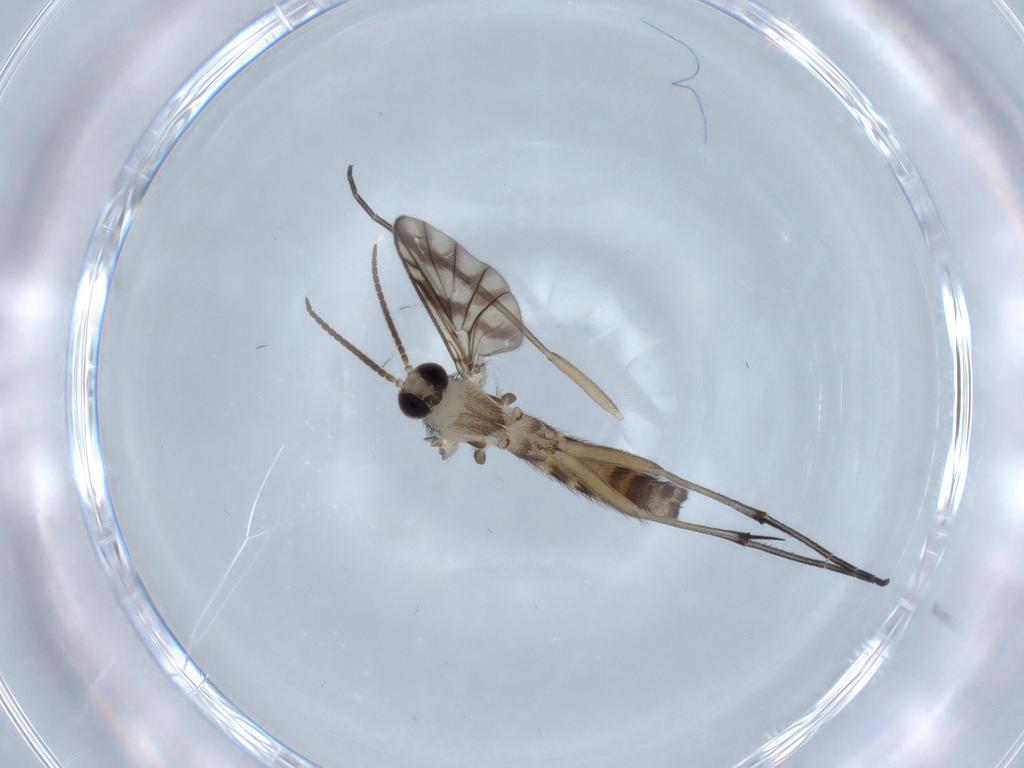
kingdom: Animalia
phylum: Arthropoda
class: Insecta
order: Diptera
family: Keroplatidae
